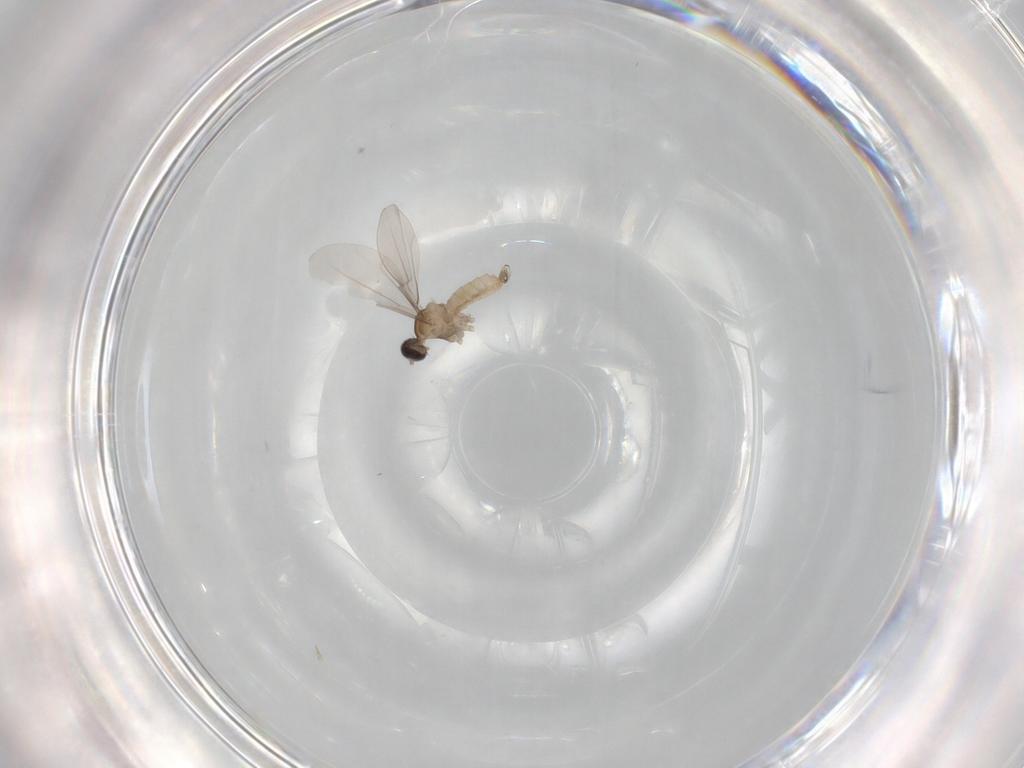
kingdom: Animalia
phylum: Arthropoda
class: Insecta
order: Diptera
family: Cecidomyiidae
